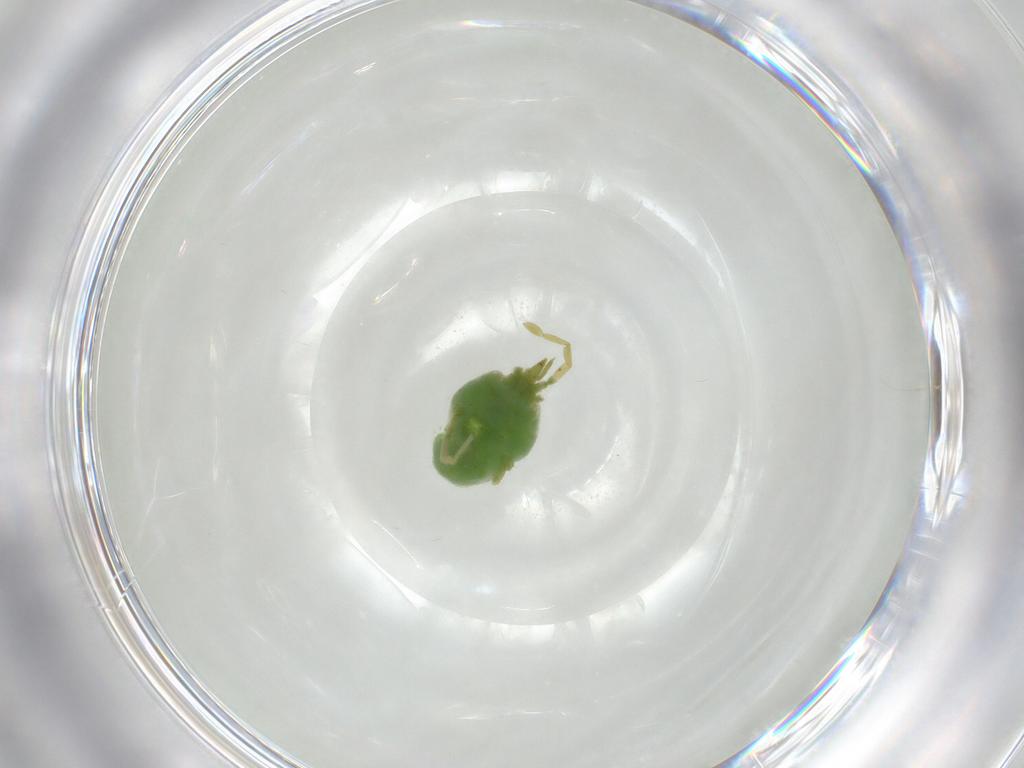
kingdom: Animalia
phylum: Arthropoda
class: Arachnida
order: Trombidiformes
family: Erythraeidae
